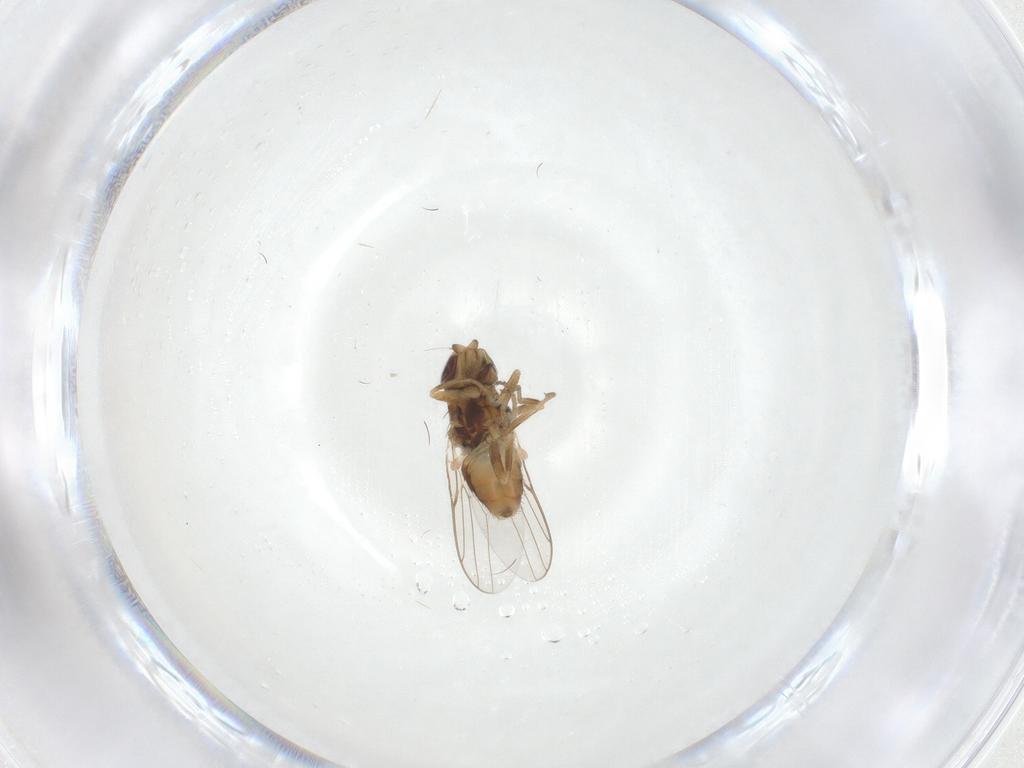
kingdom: Animalia
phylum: Arthropoda
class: Insecta
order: Diptera
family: Chloropidae
